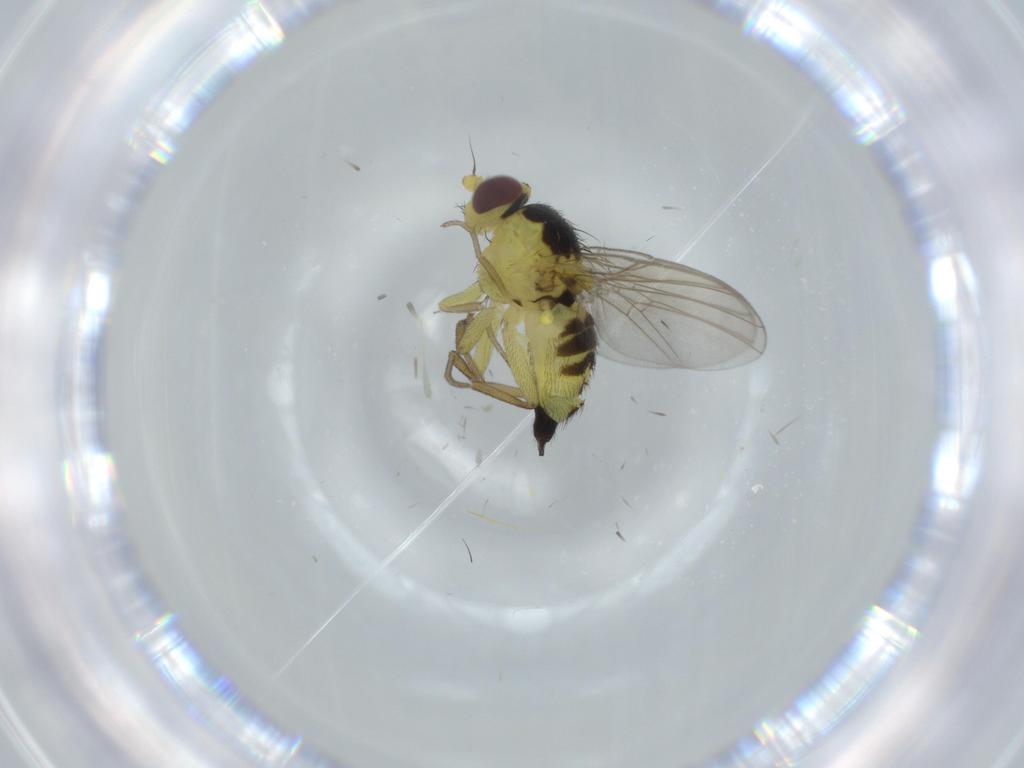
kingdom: Animalia
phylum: Arthropoda
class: Insecta
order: Diptera
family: Agromyzidae
